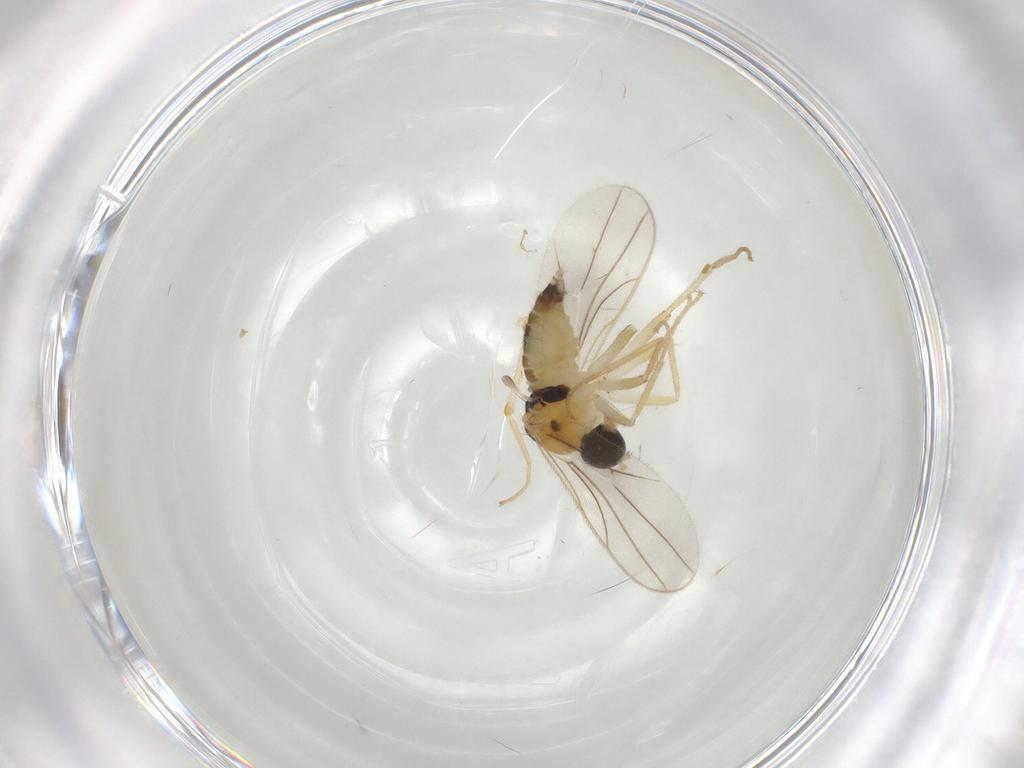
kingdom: Animalia
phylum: Arthropoda
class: Insecta
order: Diptera
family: Hybotidae
